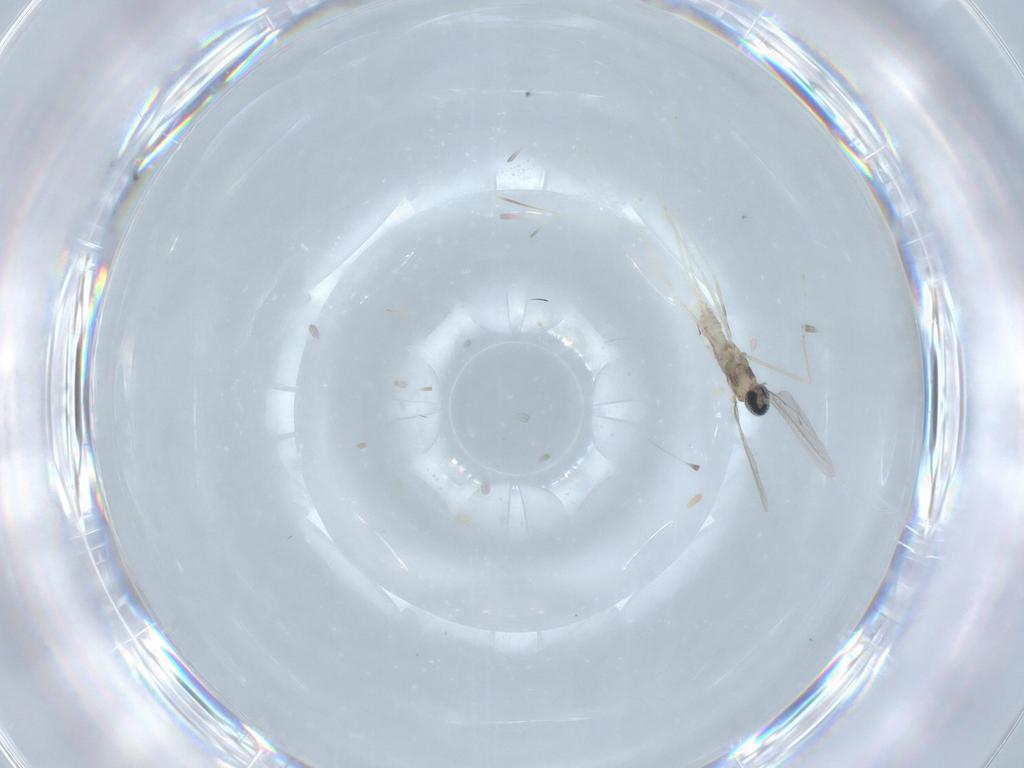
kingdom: Animalia
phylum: Arthropoda
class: Insecta
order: Diptera
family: Cecidomyiidae
